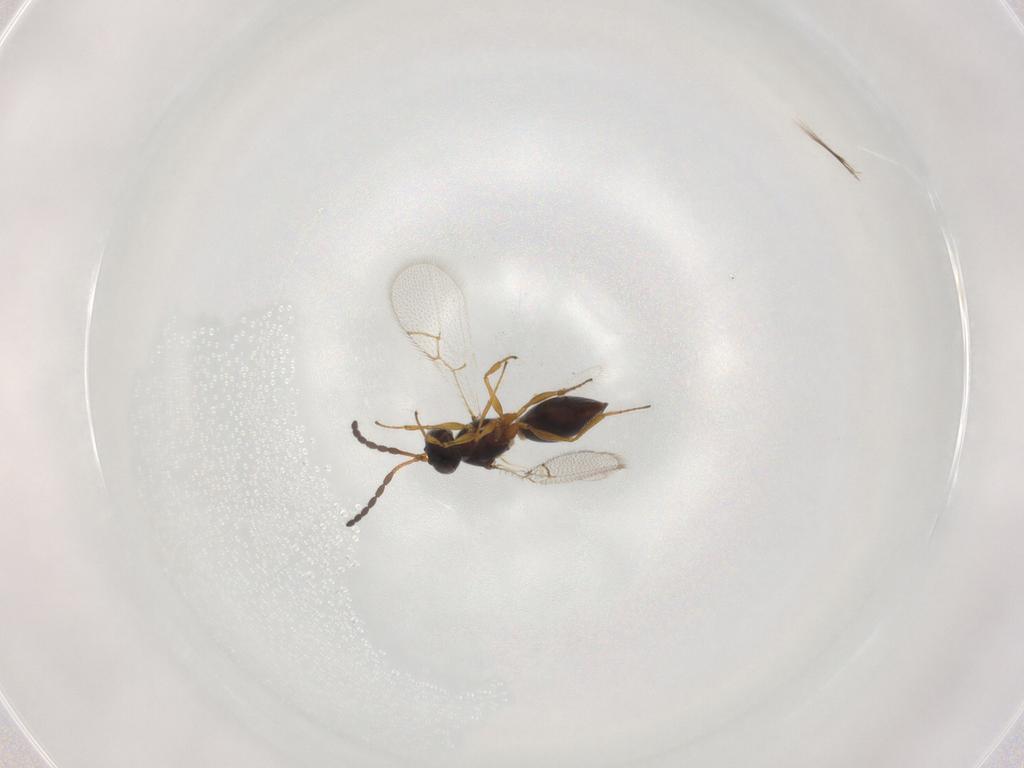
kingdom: Animalia
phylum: Arthropoda
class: Insecta
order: Hymenoptera
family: Figitidae
